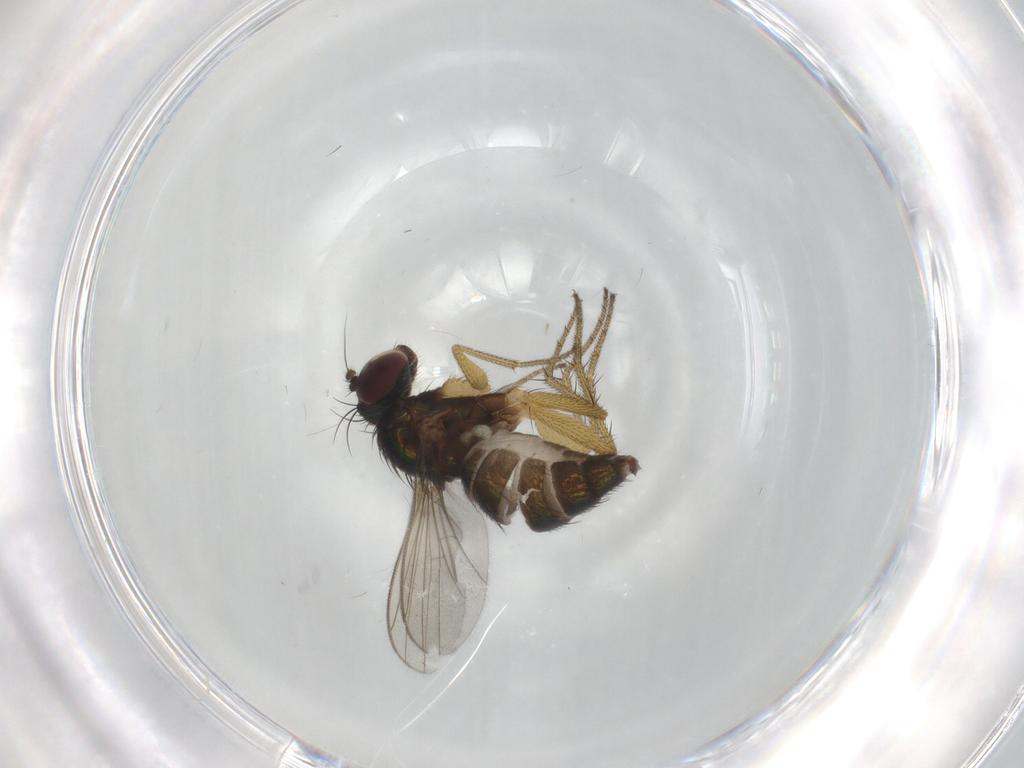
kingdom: Animalia
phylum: Arthropoda
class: Insecta
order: Diptera
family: Dolichopodidae
